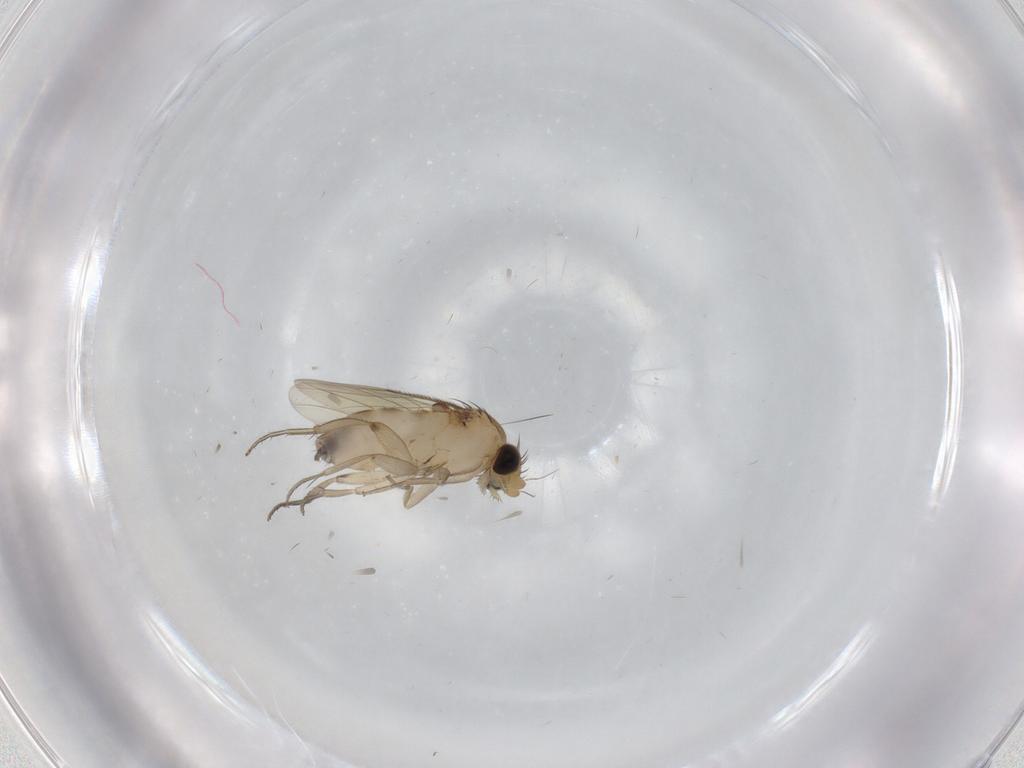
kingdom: Animalia
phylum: Arthropoda
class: Insecta
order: Diptera
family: Phoridae
